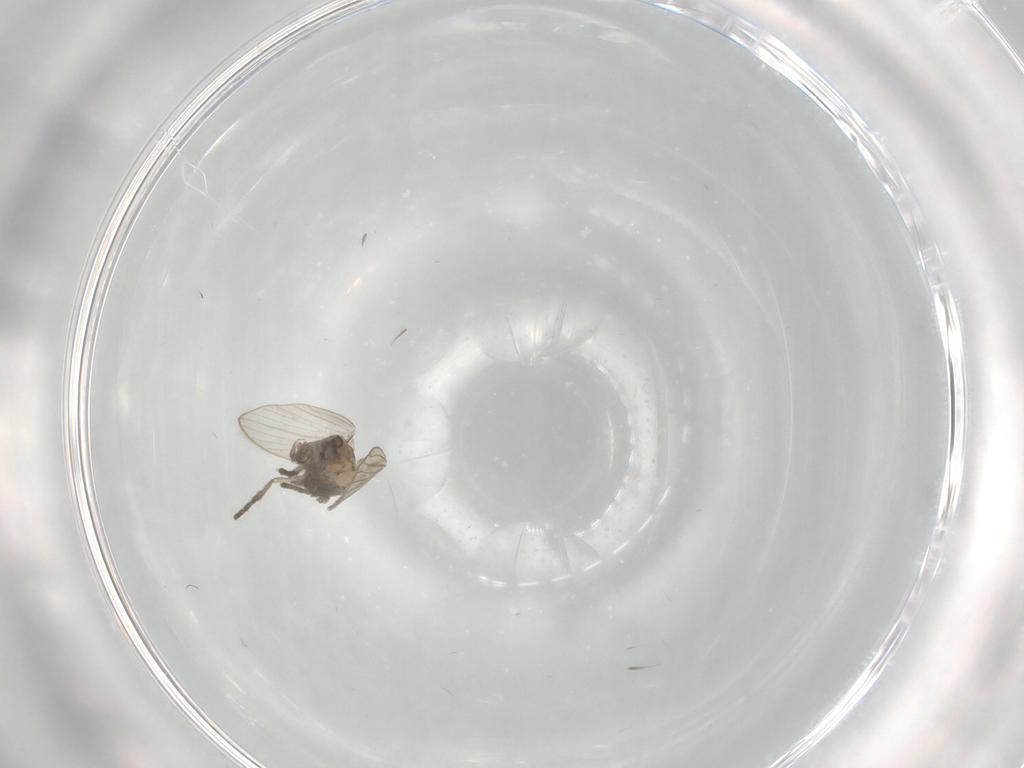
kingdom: Animalia
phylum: Arthropoda
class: Insecta
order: Diptera
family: Psychodidae
